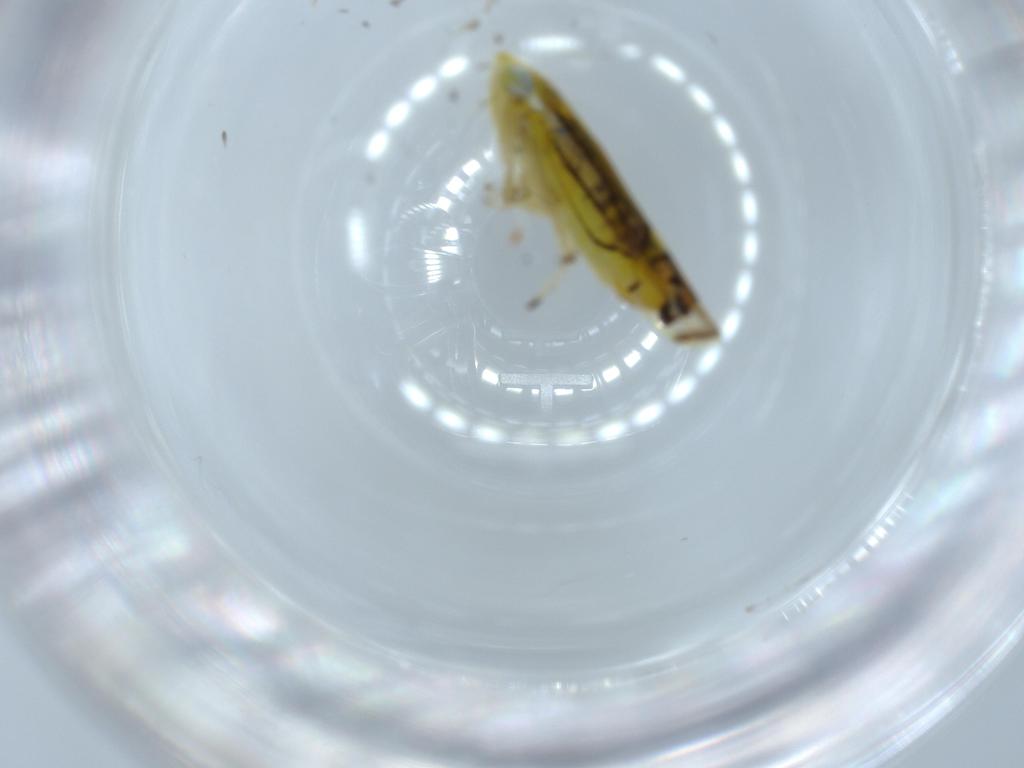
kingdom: Animalia
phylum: Arthropoda
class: Insecta
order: Hemiptera
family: Cicadellidae
